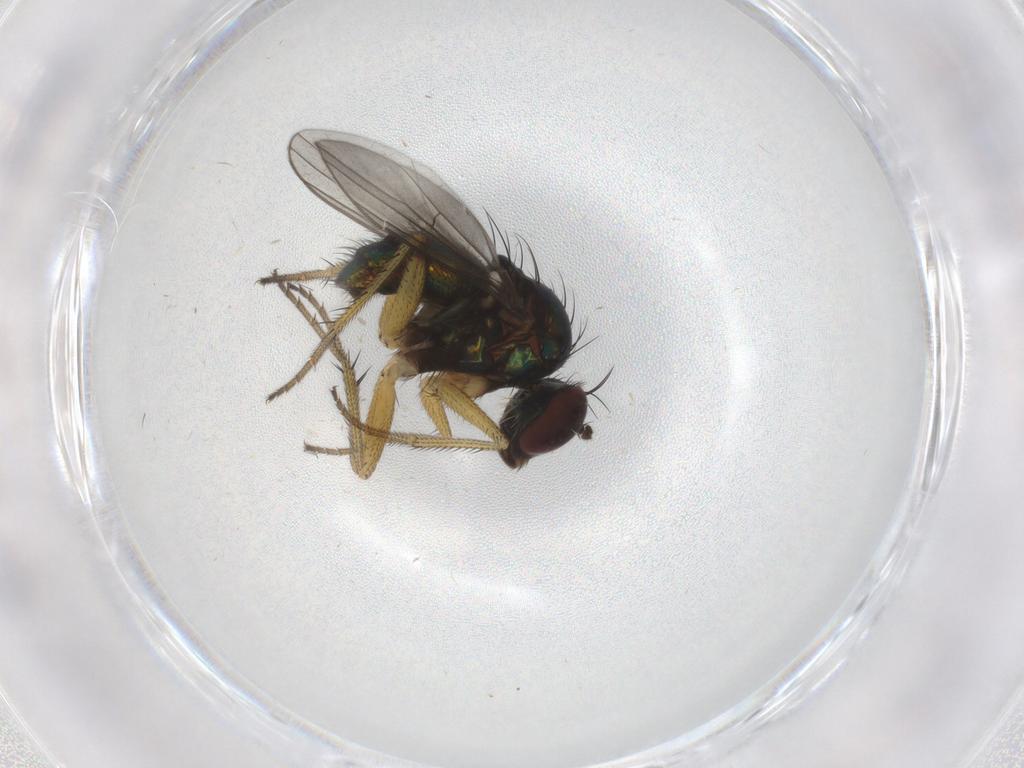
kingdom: Animalia
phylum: Arthropoda
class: Insecta
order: Diptera
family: Dolichopodidae
